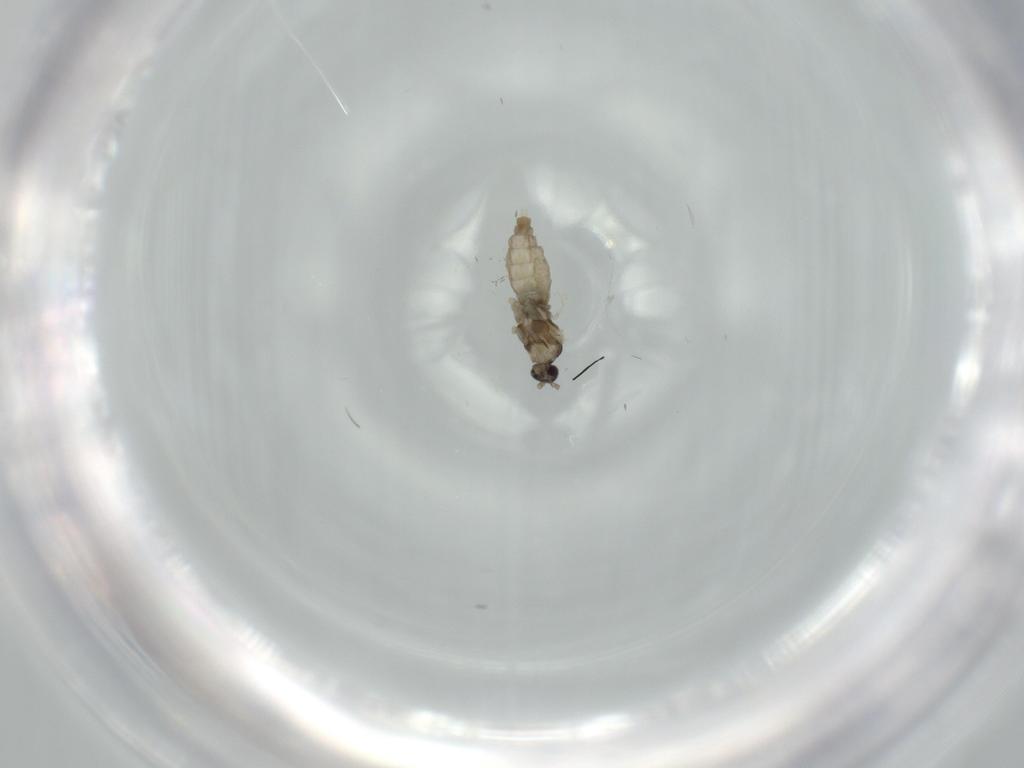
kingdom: Animalia
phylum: Arthropoda
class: Insecta
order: Diptera
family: Cecidomyiidae
